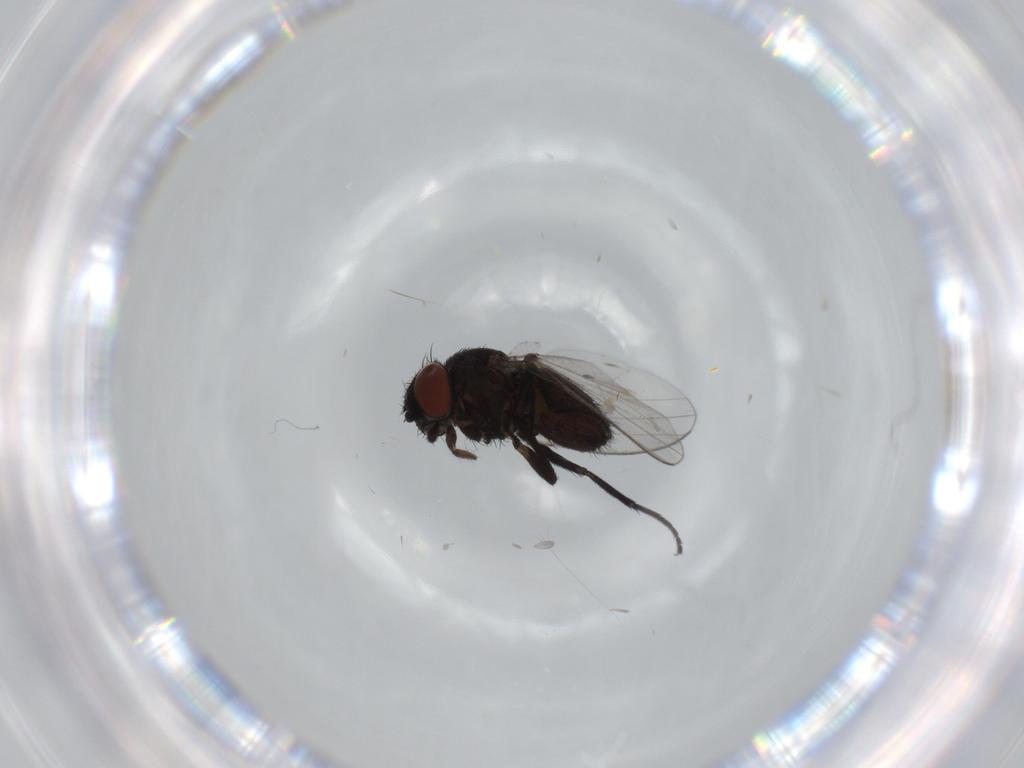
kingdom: Animalia
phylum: Arthropoda
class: Insecta
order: Diptera
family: Milichiidae
